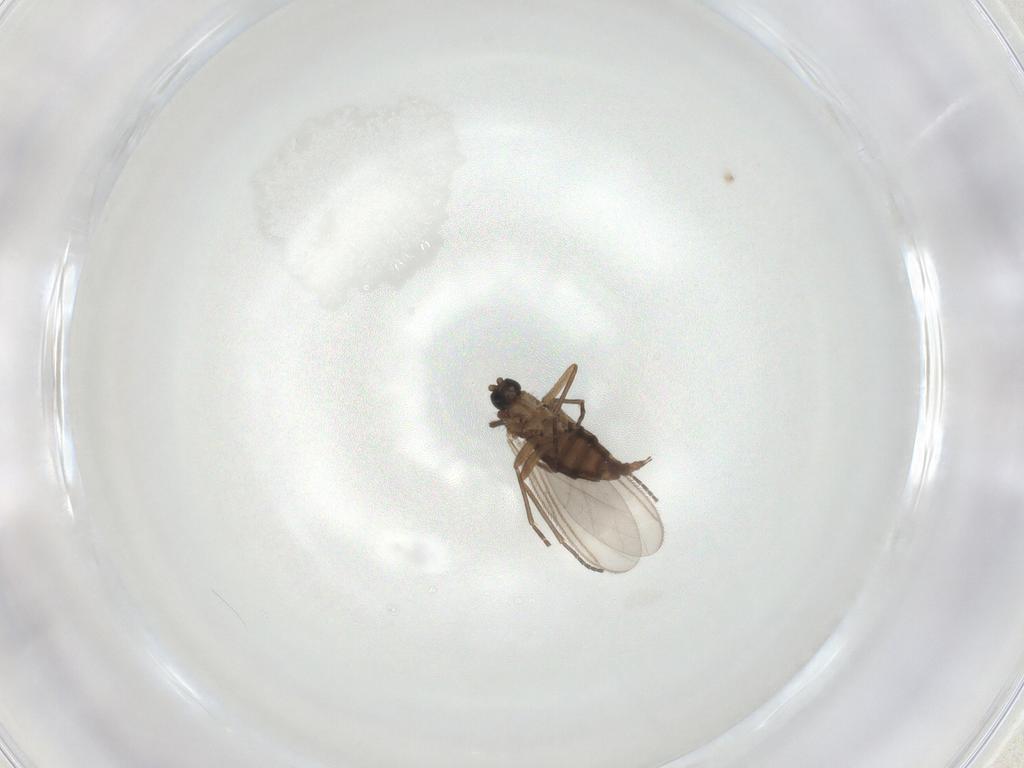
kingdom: Animalia
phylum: Arthropoda
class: Insecta
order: Diptera
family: Sciaridae
